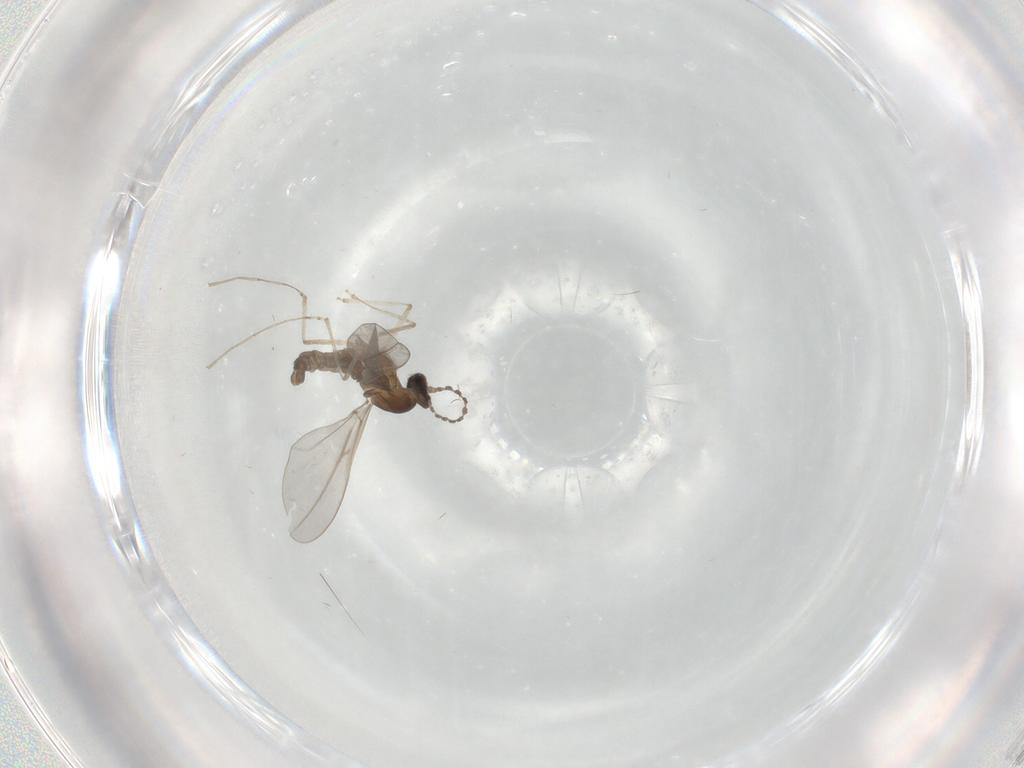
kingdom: Animalia
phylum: Arthropoda
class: Insecta
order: Diptera
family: Cecidomyiidae
